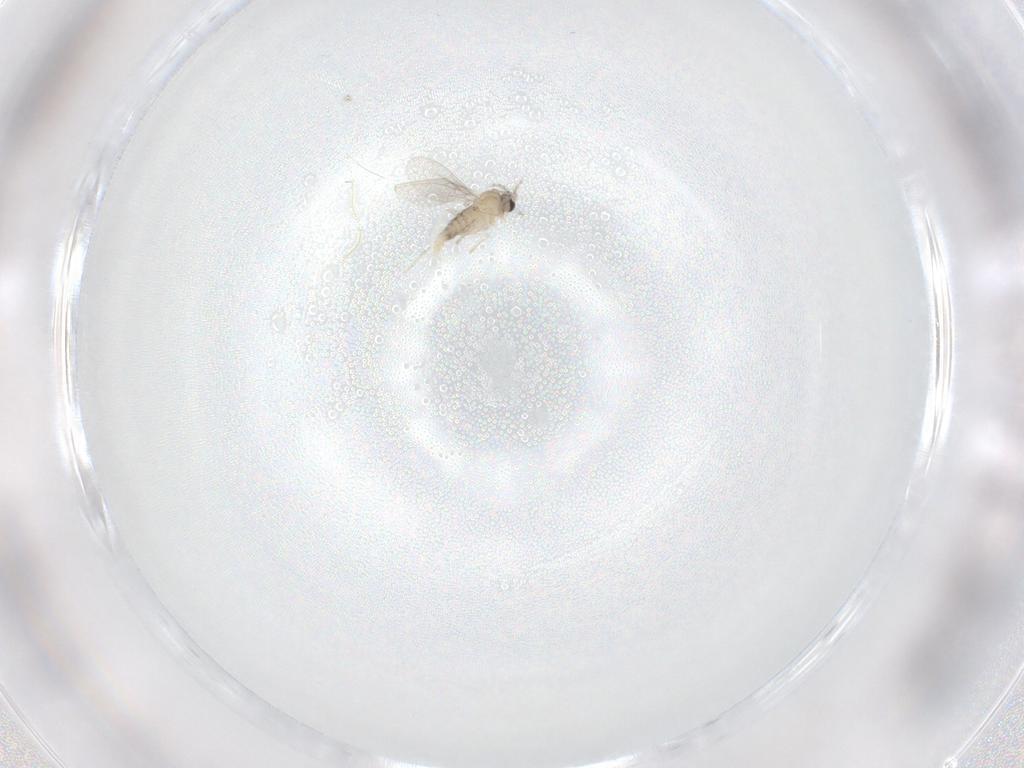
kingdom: Animalia
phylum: Arthropoda
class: Insecta
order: Diptera
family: Cecidomyiidae
